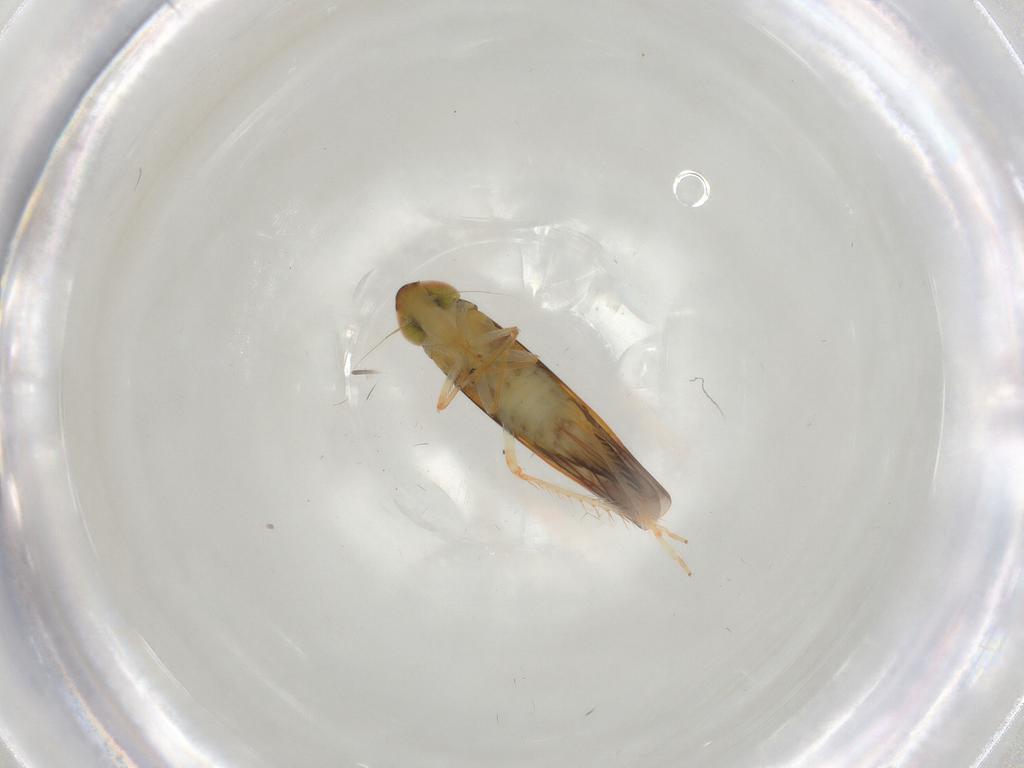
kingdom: Animalia
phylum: Arthropoda
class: Insecta
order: Hemiptera
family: Cicadellidae
